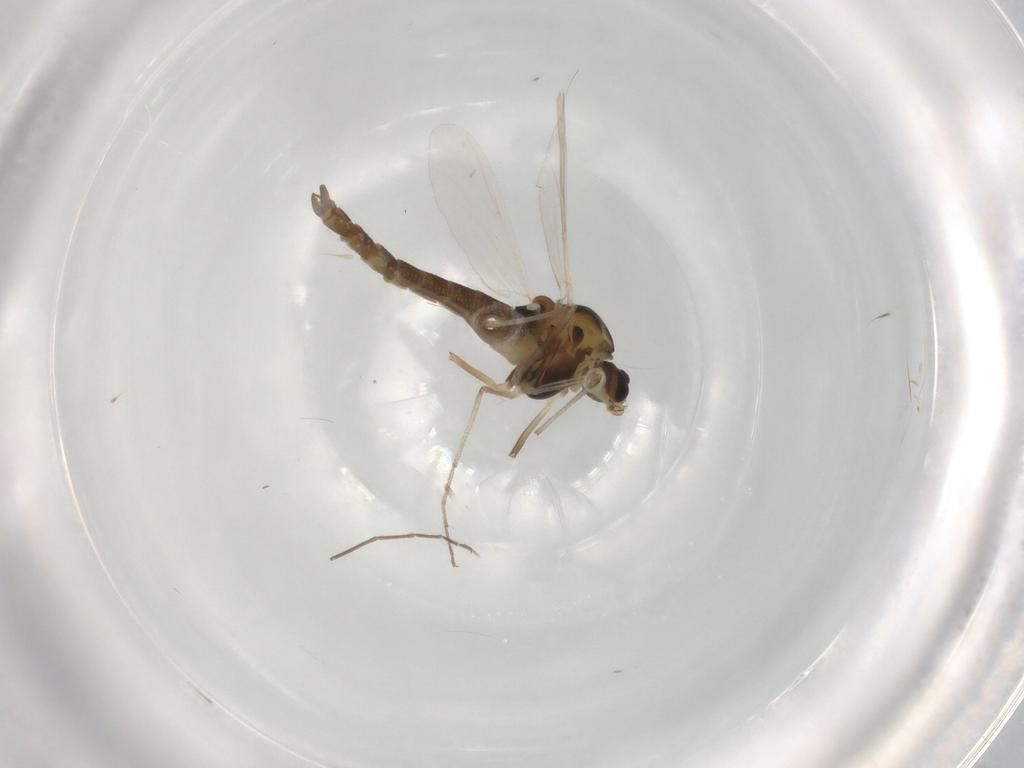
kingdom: Animalia
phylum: Arthropoda
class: Insecta
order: Diptera
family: Chironomidae
